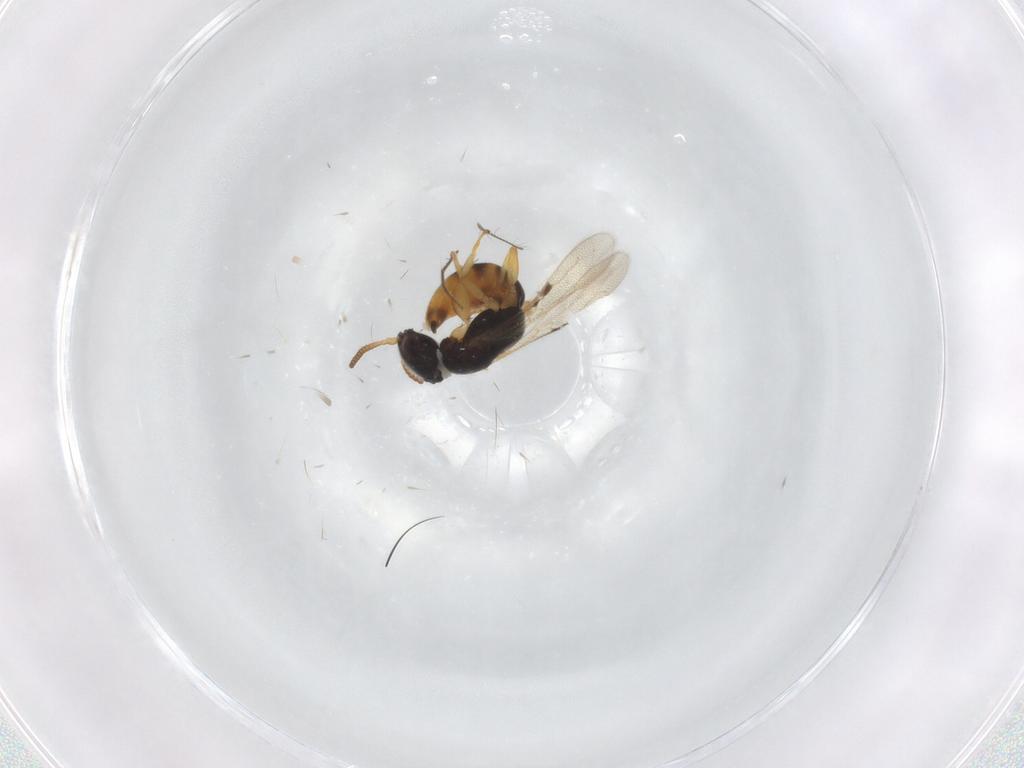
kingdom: Animalia
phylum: Arthropoda
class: Insecta
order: Hymenoptera
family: Bethylidae
